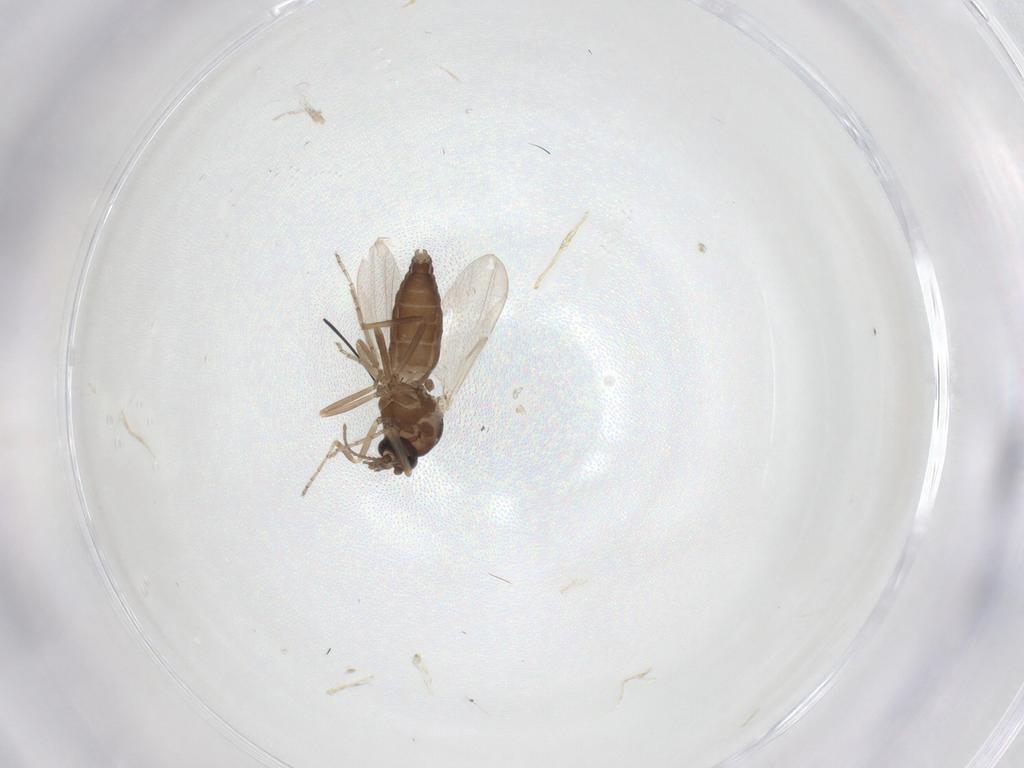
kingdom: Animalia
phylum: Arthropoda
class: Insecta
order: Diptera
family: Ceratopogonidae
